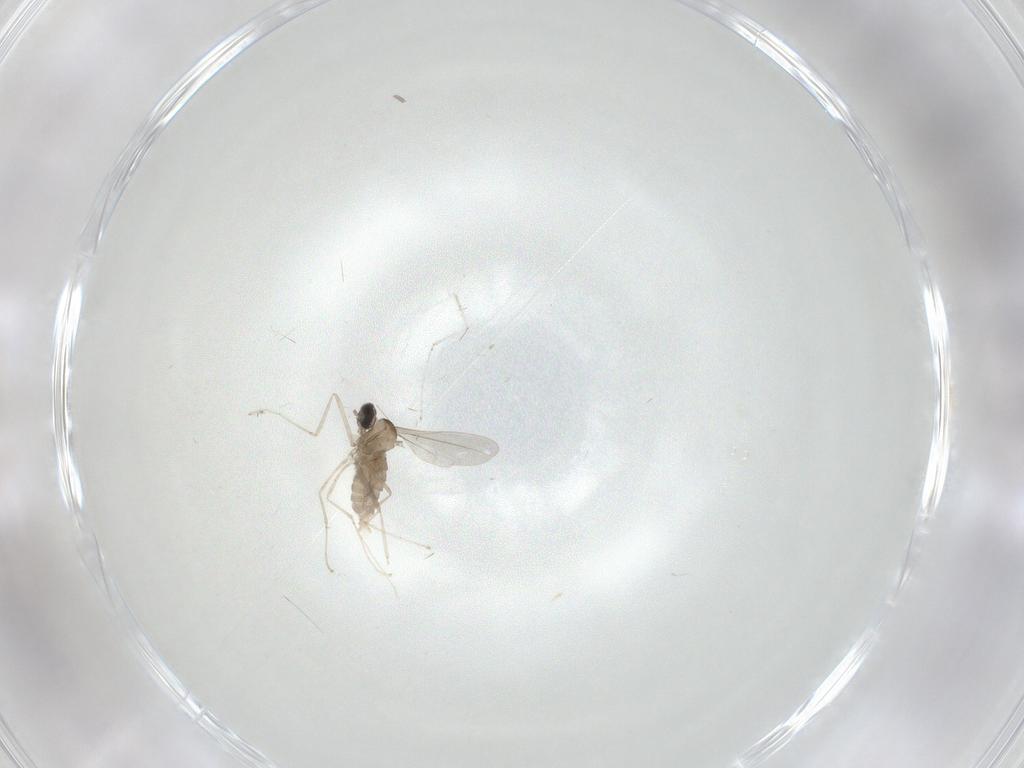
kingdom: Animalia
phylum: Arthropoda
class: Insecta
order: Diptera
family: Cecidomyiidae
